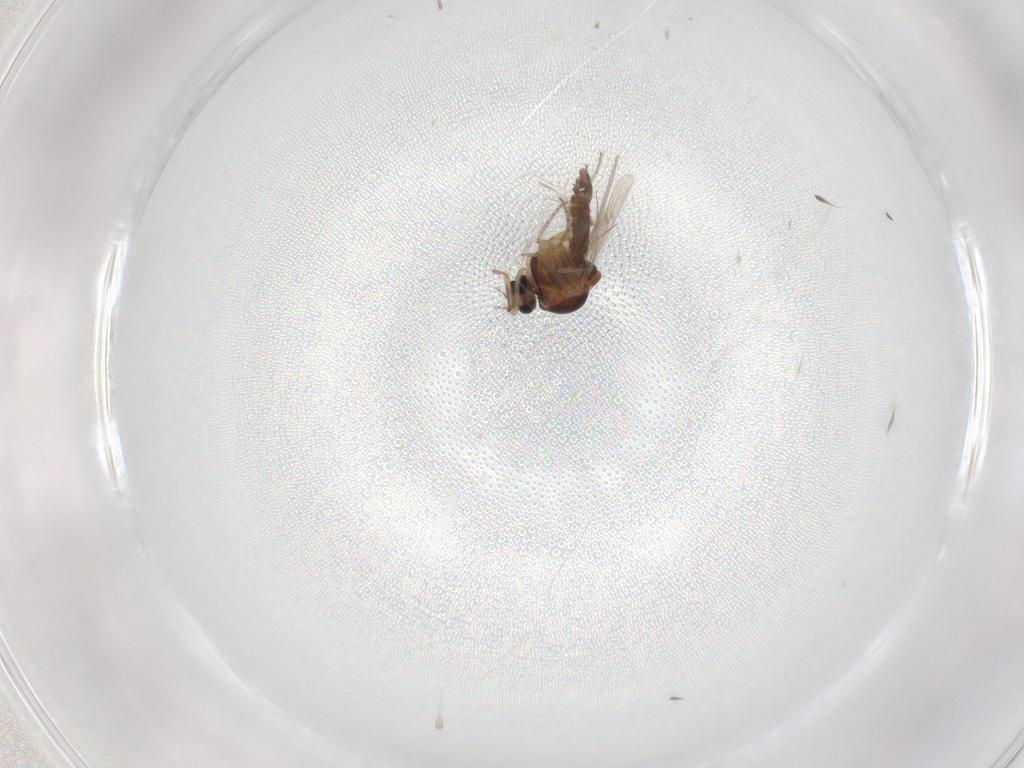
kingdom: Animalia
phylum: Arthropoda
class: Insecta
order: Diptera
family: Ceratopogonidae
